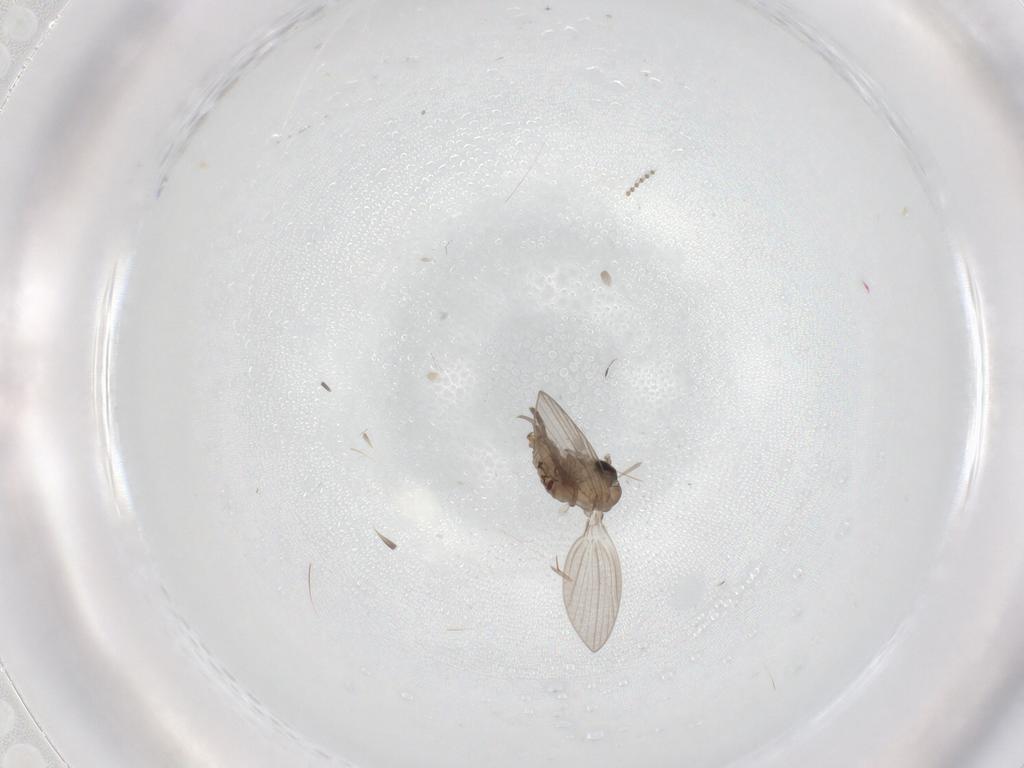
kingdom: Animalia
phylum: Arthropoda
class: Insecta
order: Diptera
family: Psychodidae
